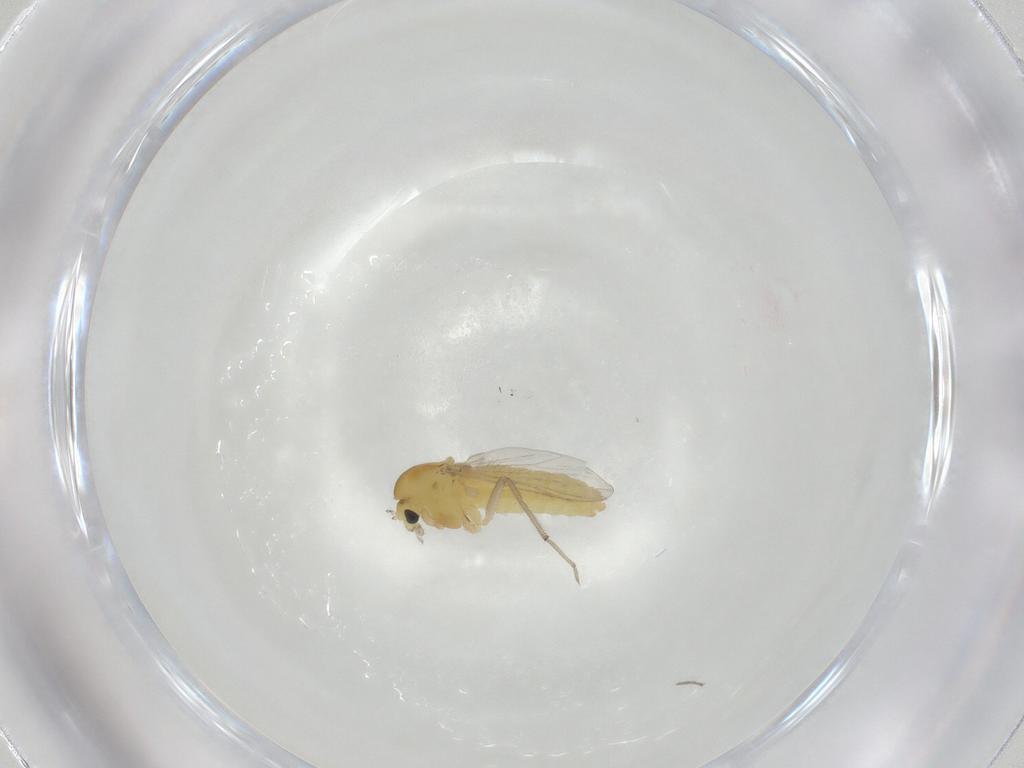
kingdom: Animalia
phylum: Arthropoda
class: Insecta
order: Diptera
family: Chironomidae
